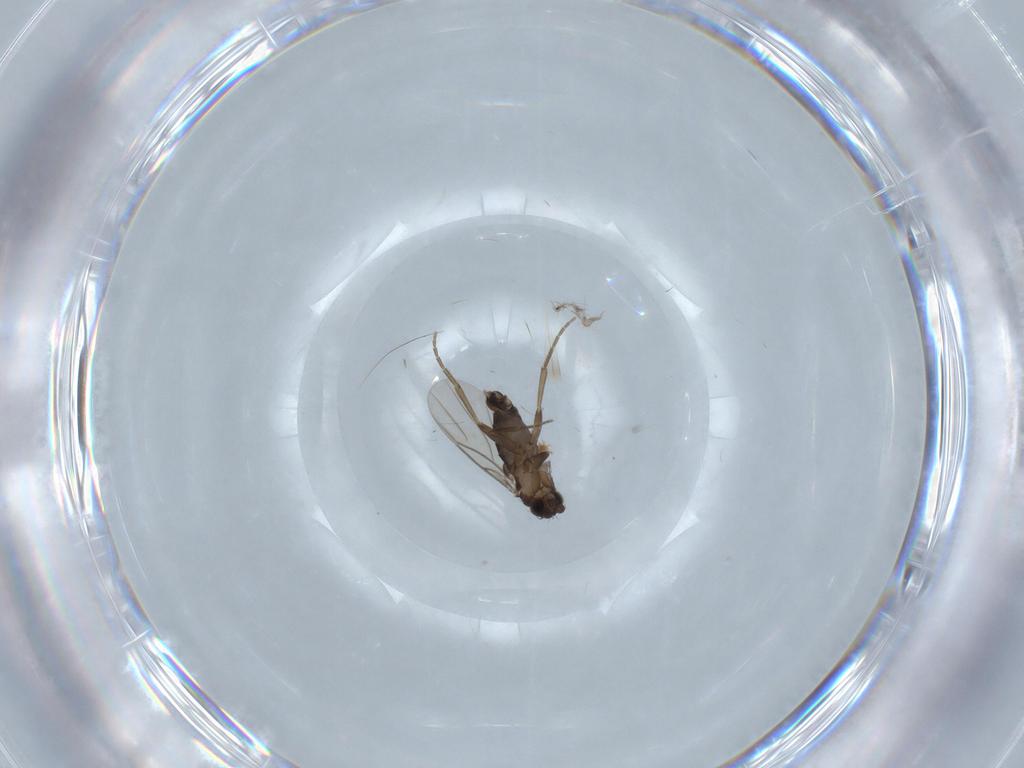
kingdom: Animalia
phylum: Arthropoda
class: Insecta
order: Diptera
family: Phoridae
